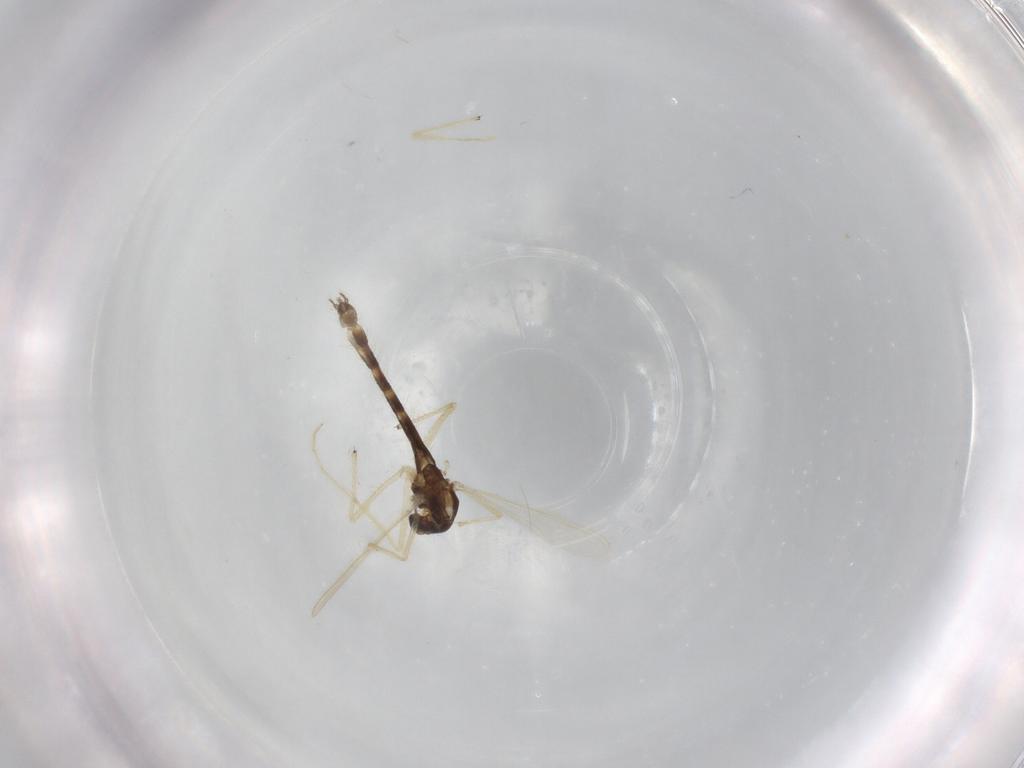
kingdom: Animalia
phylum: Arthropoda
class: Insecta
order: Diptera
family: Chironomidae
